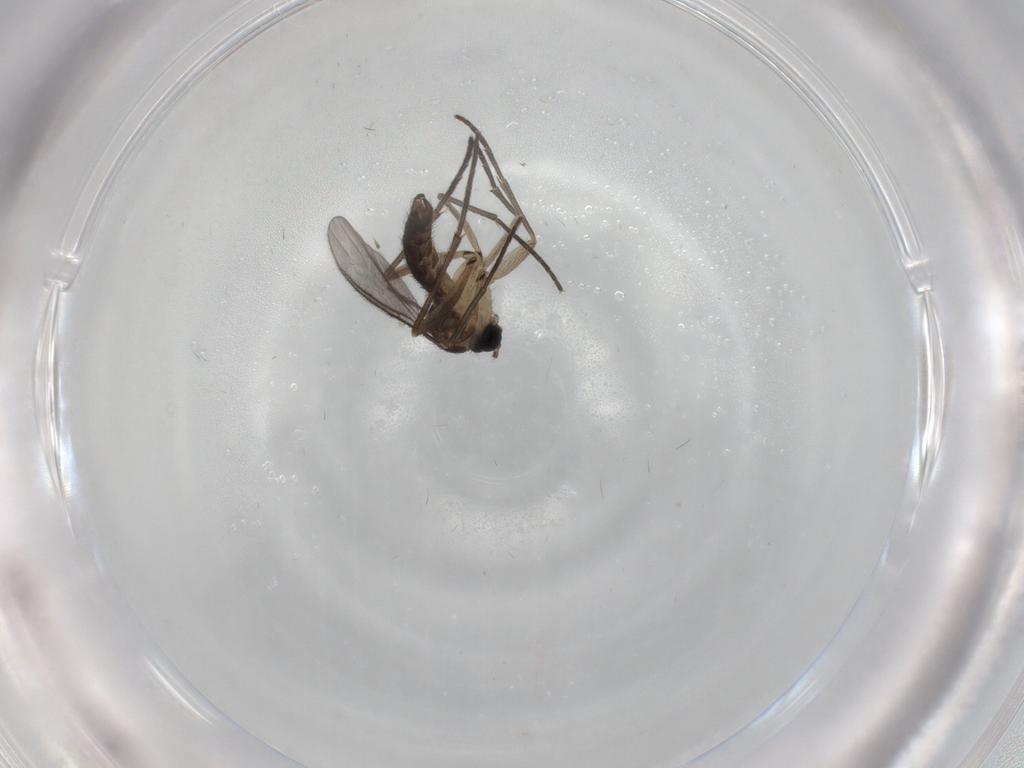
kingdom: Animalia
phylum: Arthropoda
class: Insecta
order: Diptera
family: Sciaridae
